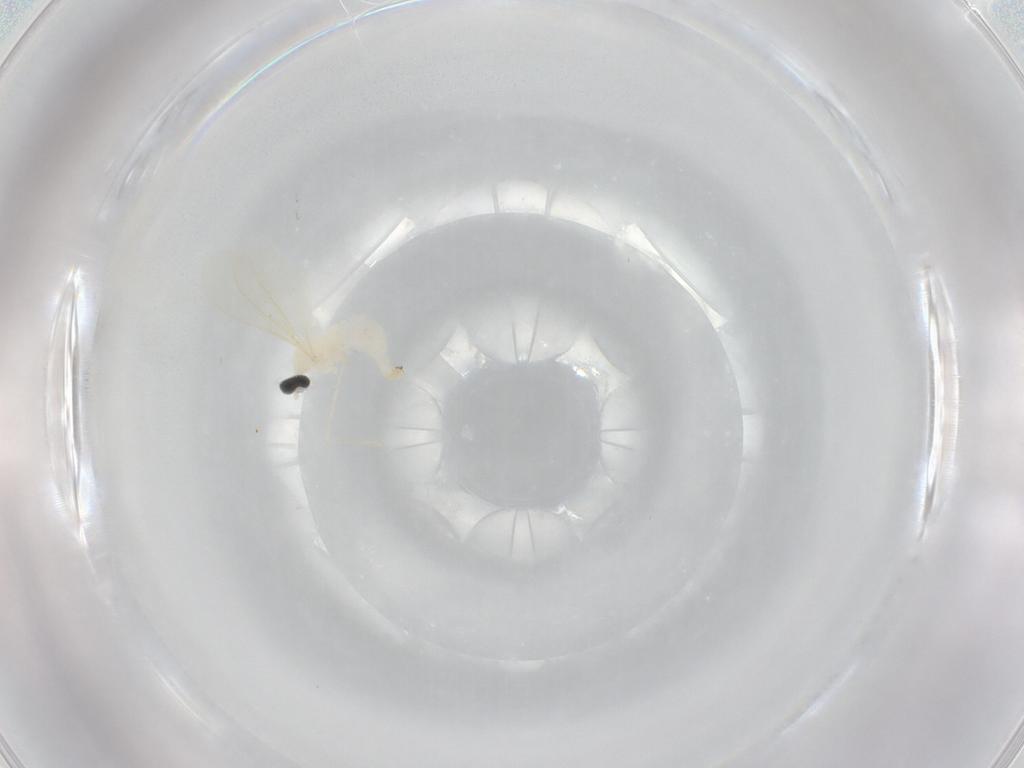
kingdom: Animalia
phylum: Arthropoda
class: Insecta
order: Diptera
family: Cecidomyiidae
